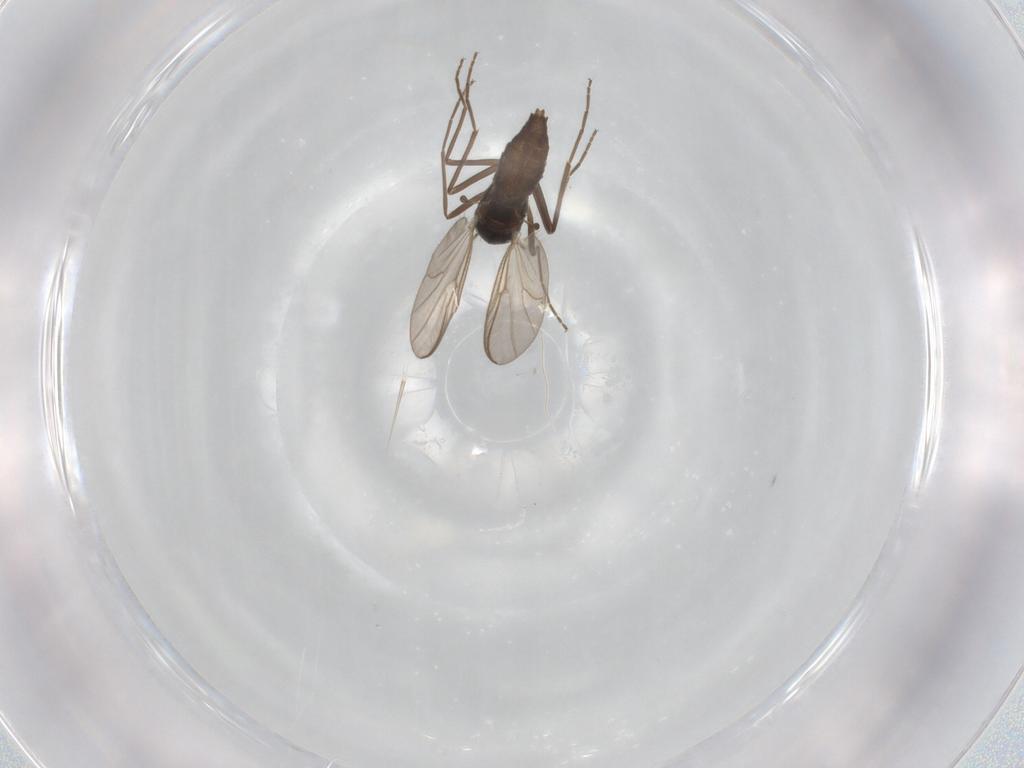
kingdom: Animalia
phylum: Arthropoda
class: Insecta
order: Diptera
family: Chironomidae
